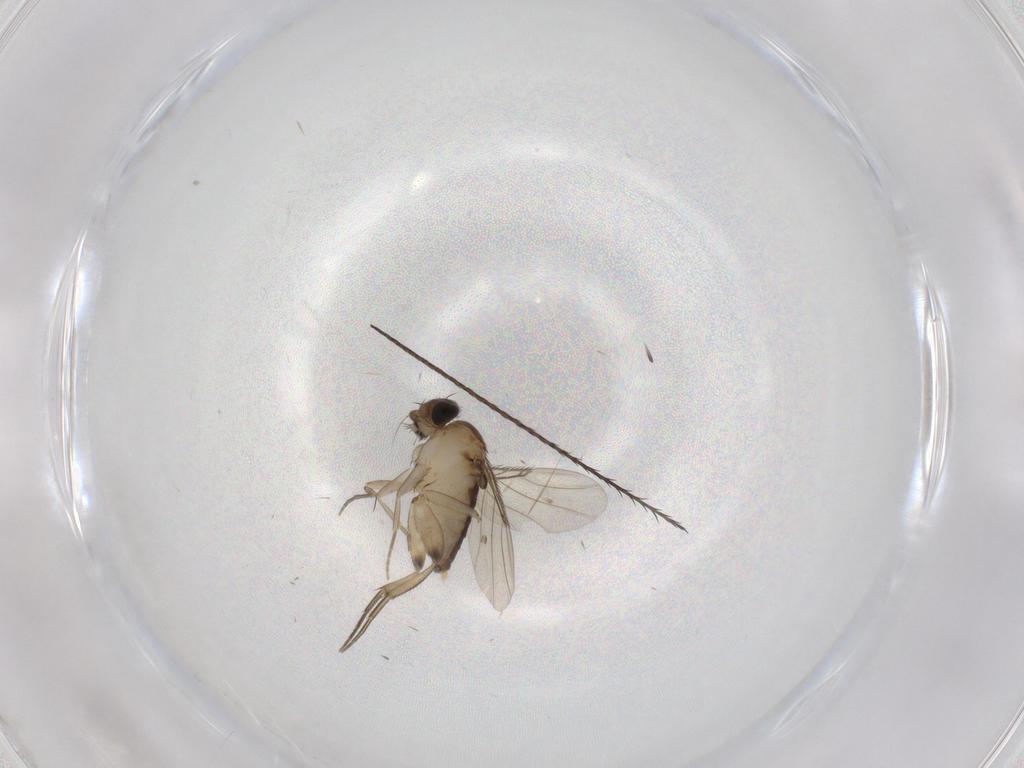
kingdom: Animalia
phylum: Arthropoda
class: Insecta
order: Diptera
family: Phoridae
